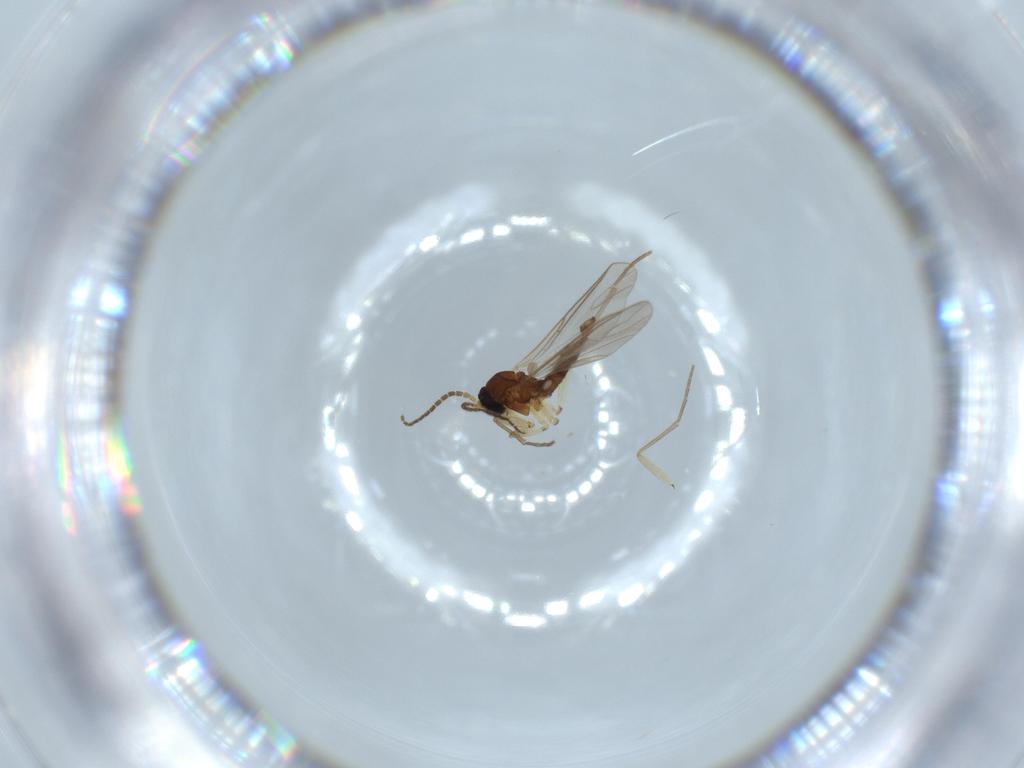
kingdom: Animalia
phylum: Arthropoda
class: Insecta
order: Diptera
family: Sciaridae
